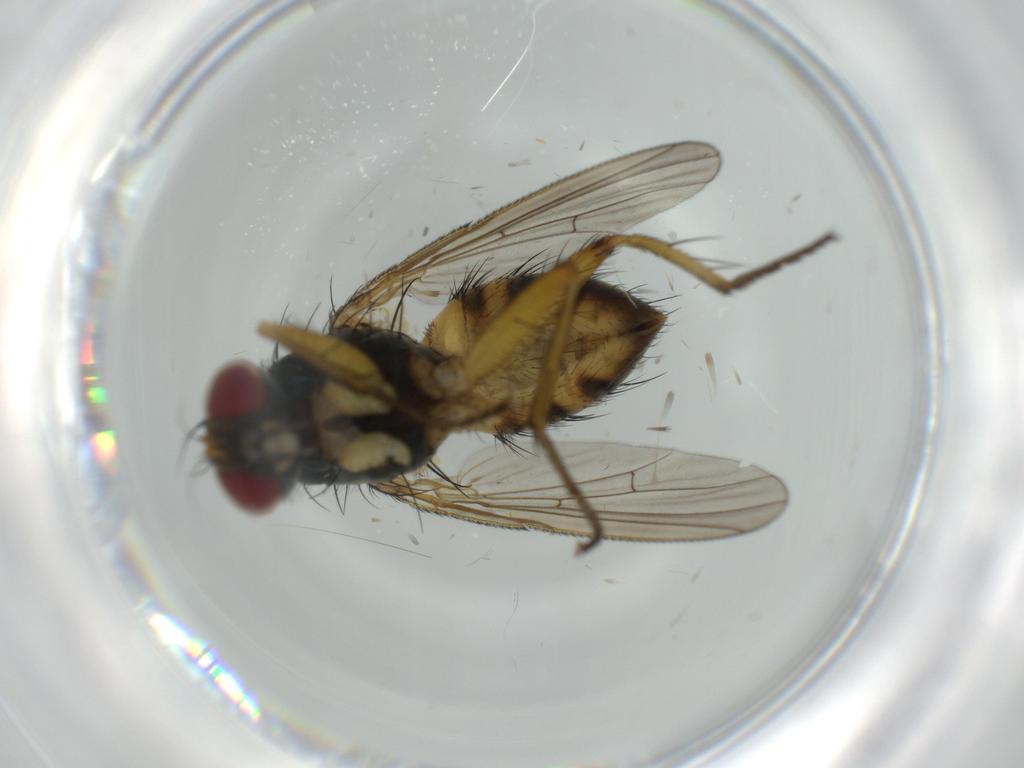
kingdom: Animalia
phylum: Arthropoda
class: Insecta
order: Diptera
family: Muscidae
